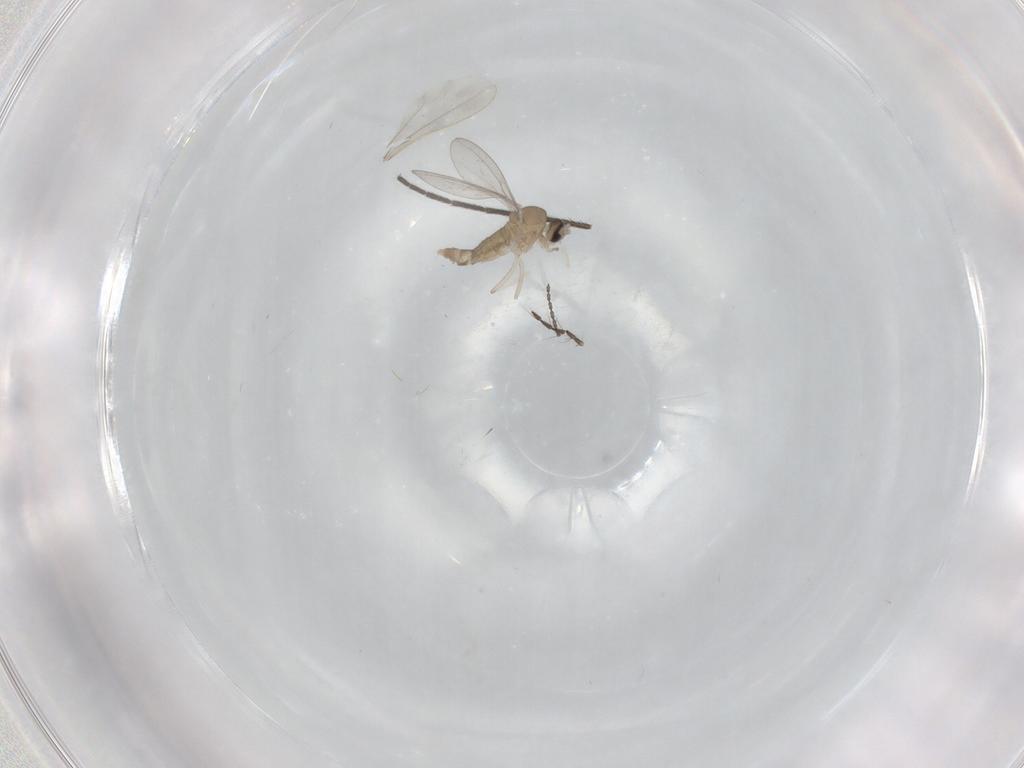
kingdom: Animalia
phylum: Arthropoda
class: Insecta
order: Diptera
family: Chironomidae
